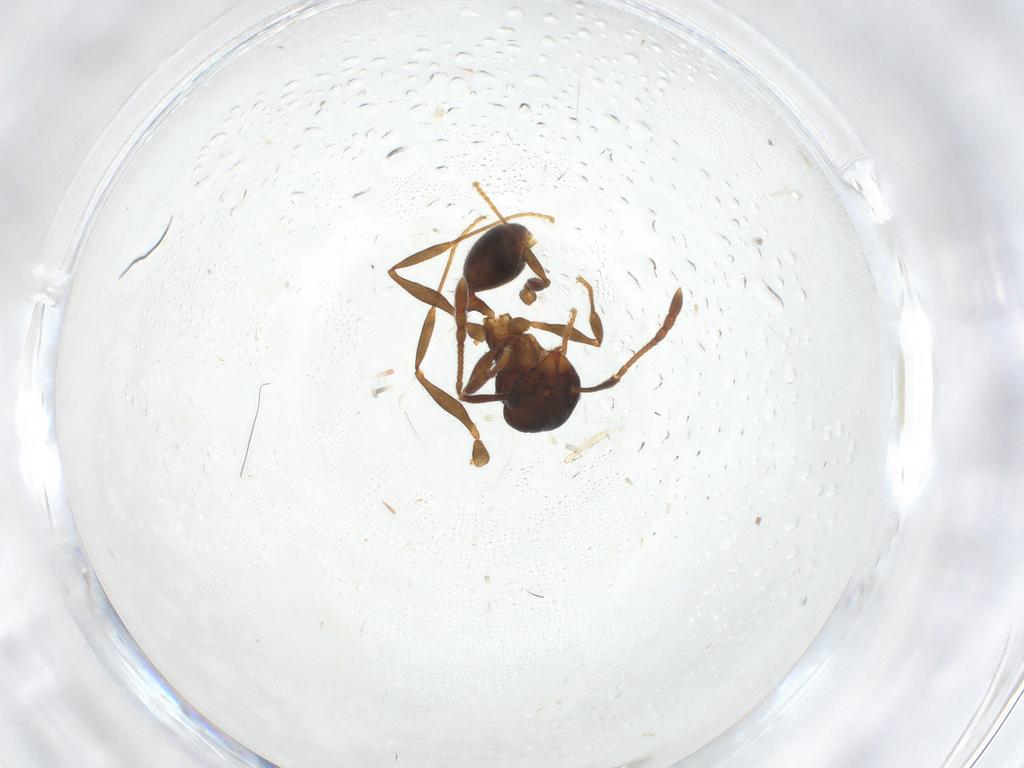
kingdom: Animalia
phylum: Arthropoda
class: Insecta
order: Hymenoptera
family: Formicidae
